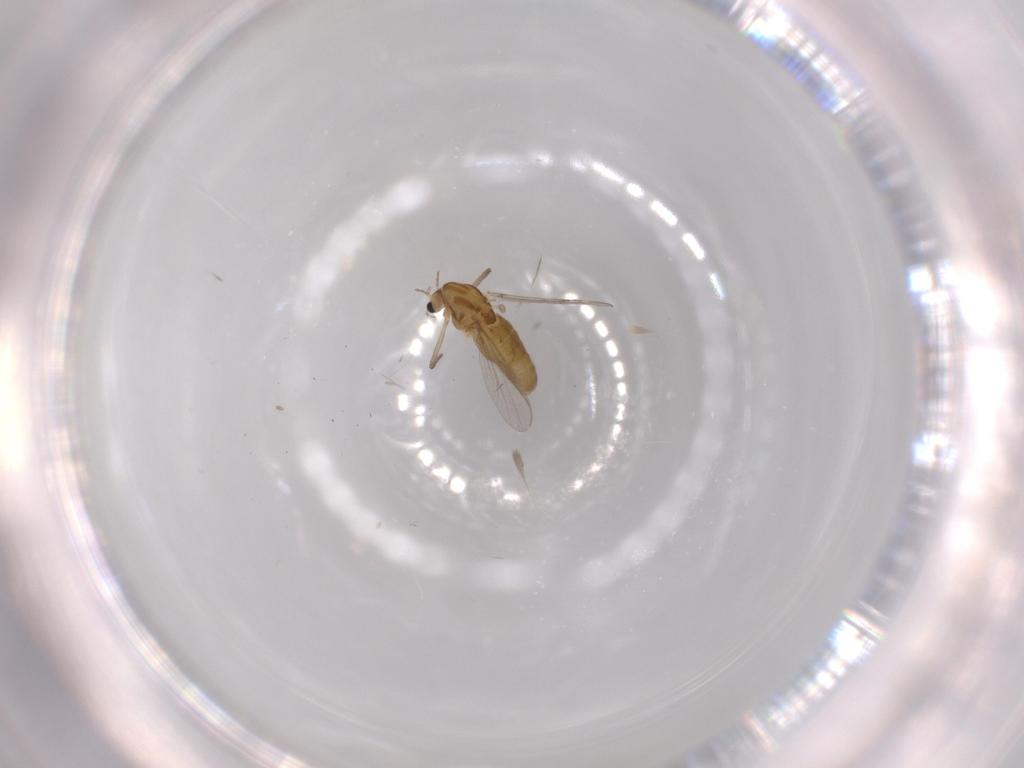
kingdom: Animalia
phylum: Arthropoda
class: Insecta
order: Diptera
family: Chironomidae
